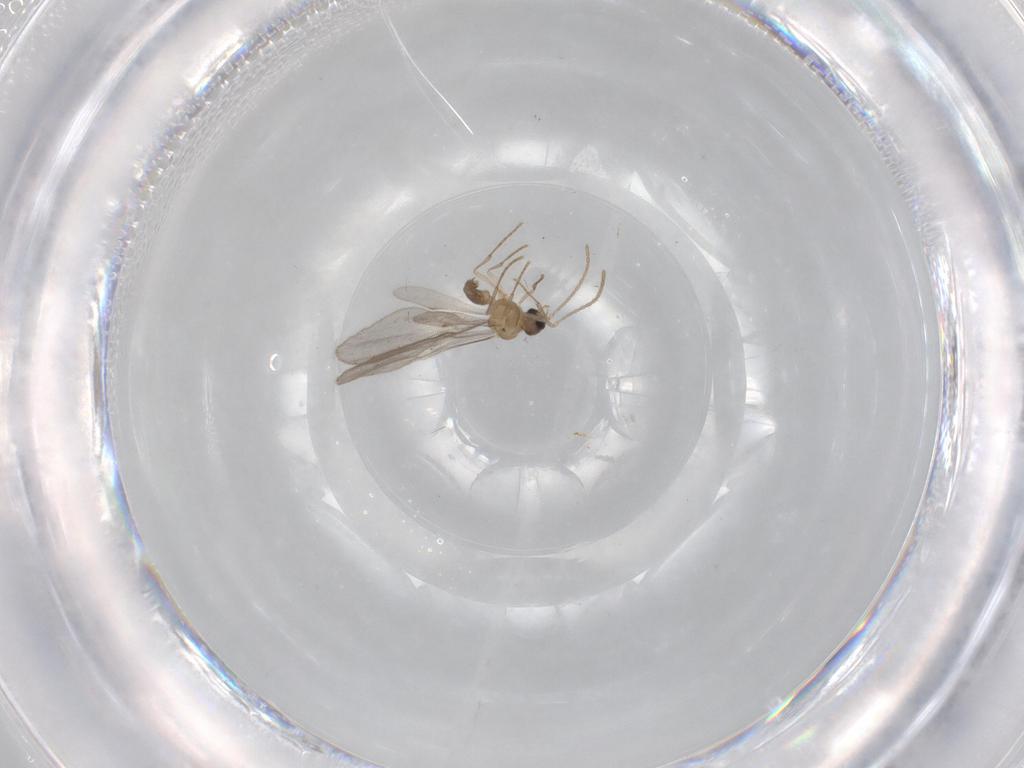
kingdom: Animalia
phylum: Arthropoda
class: Insecta
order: Hymenoptera
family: Formicidae
